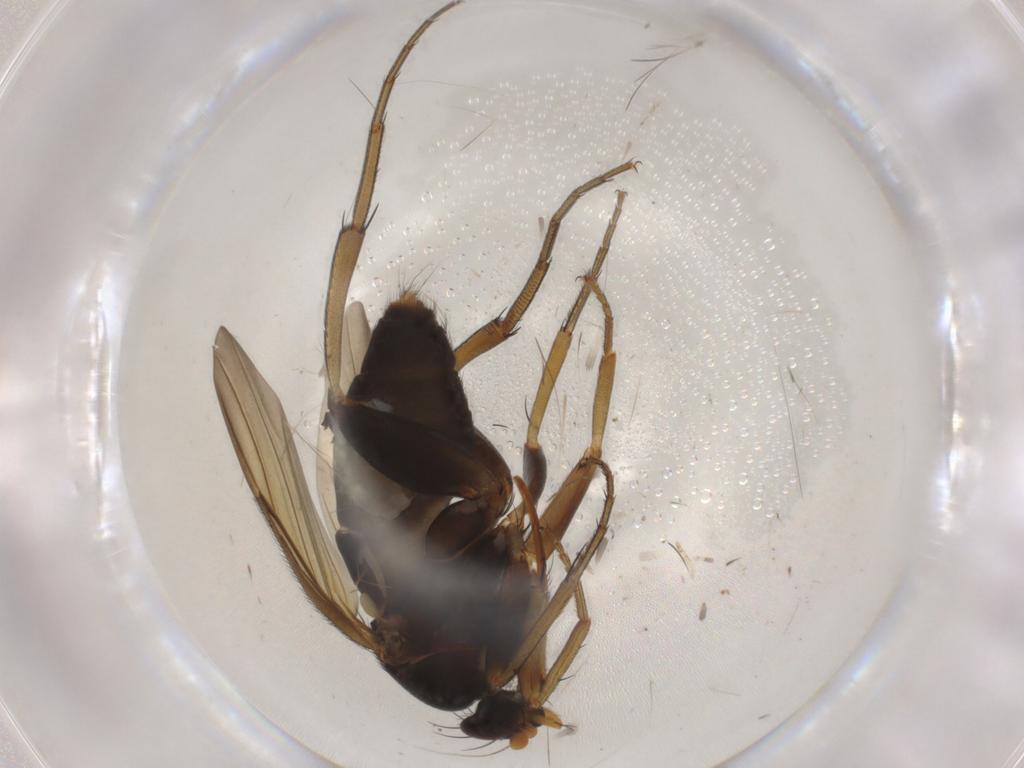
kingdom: Animalia
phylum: Arthropoda
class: Insecta
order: Diptera
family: Phoridae
